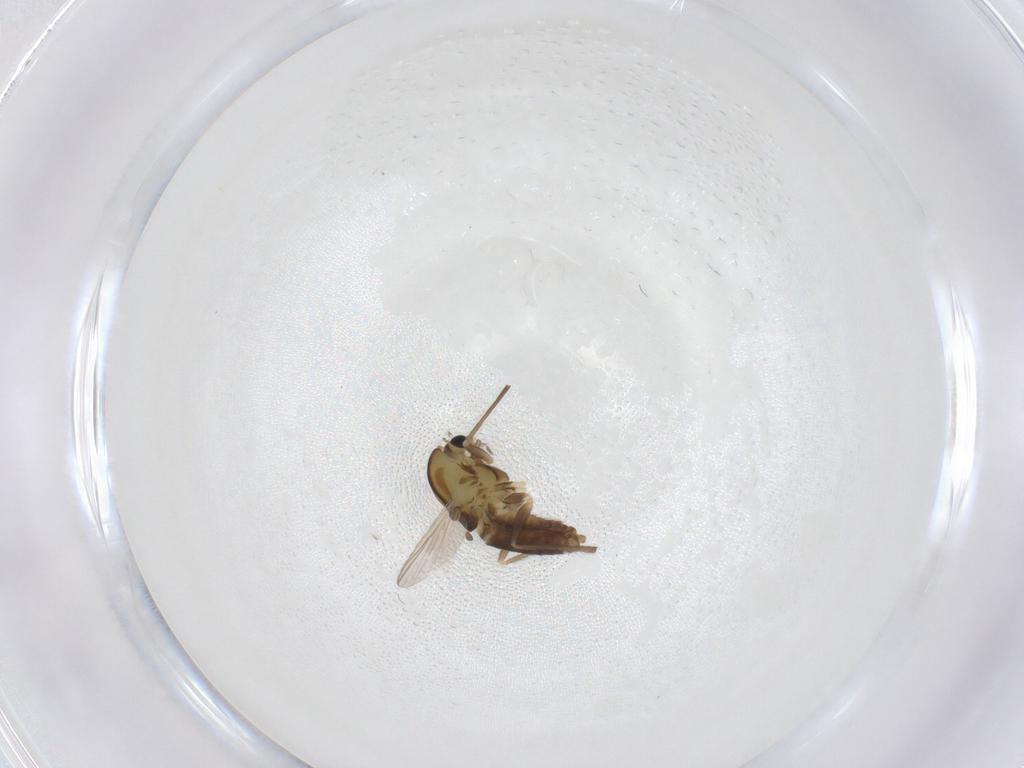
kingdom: Animalia
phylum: Arthropoda
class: Insecta
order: Diptera
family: Chironomidae
